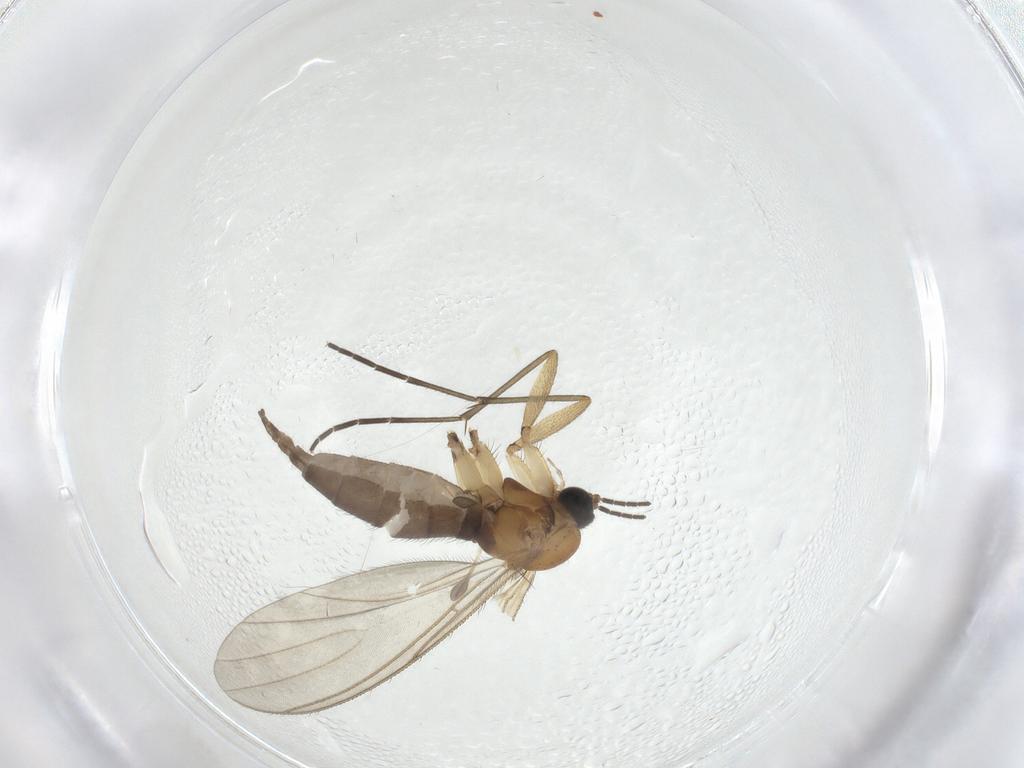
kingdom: Animalia
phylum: Arthropoda
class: Insecta
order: Diptera
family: Sciaridae
